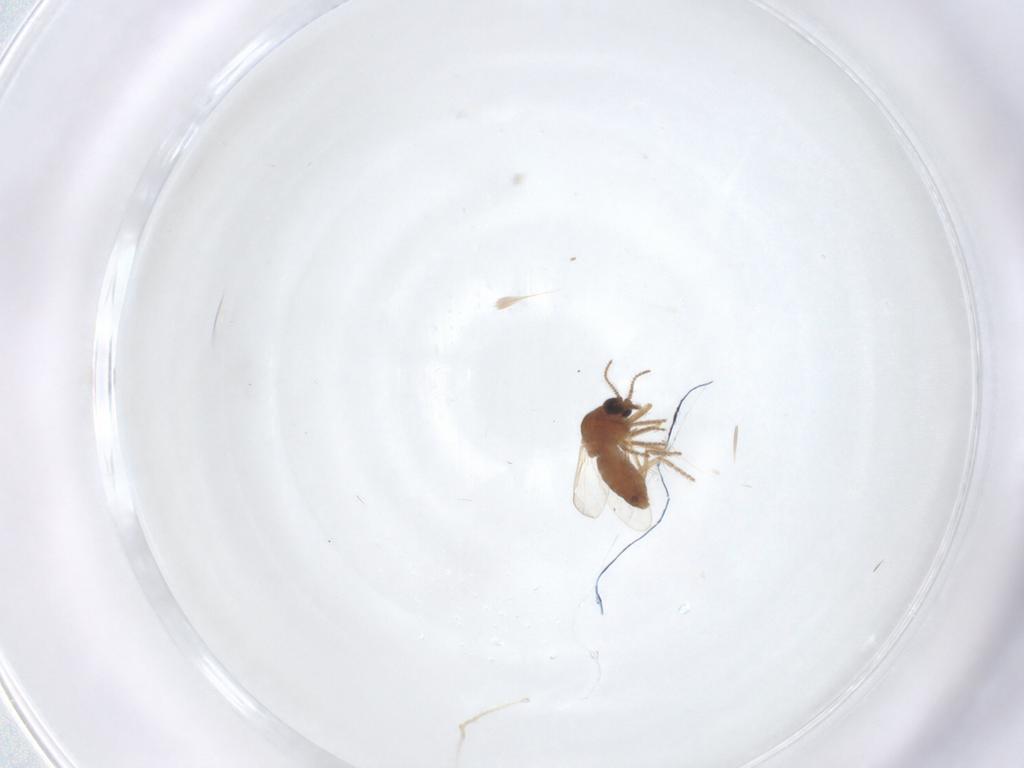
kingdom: Animalia
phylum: Arthropoda
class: Insecta
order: Diptera
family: Ceratopogonidae
